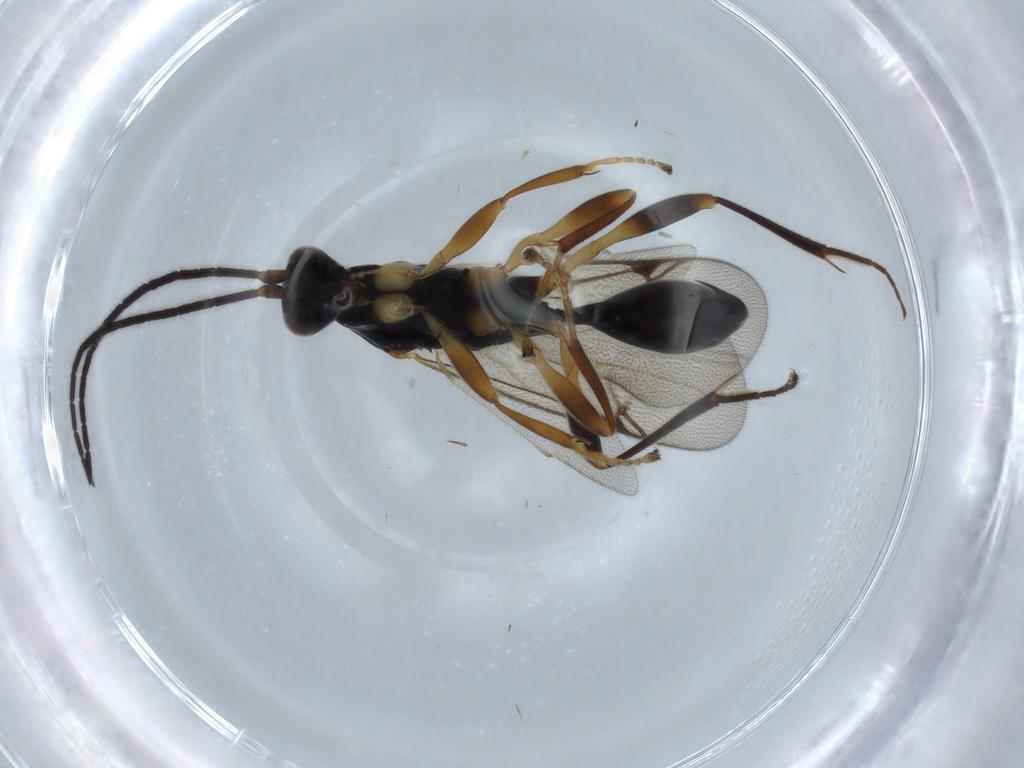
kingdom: Animalia
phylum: Arthropoda
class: Insecta
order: Hymenoptera
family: Proctotrupidae
